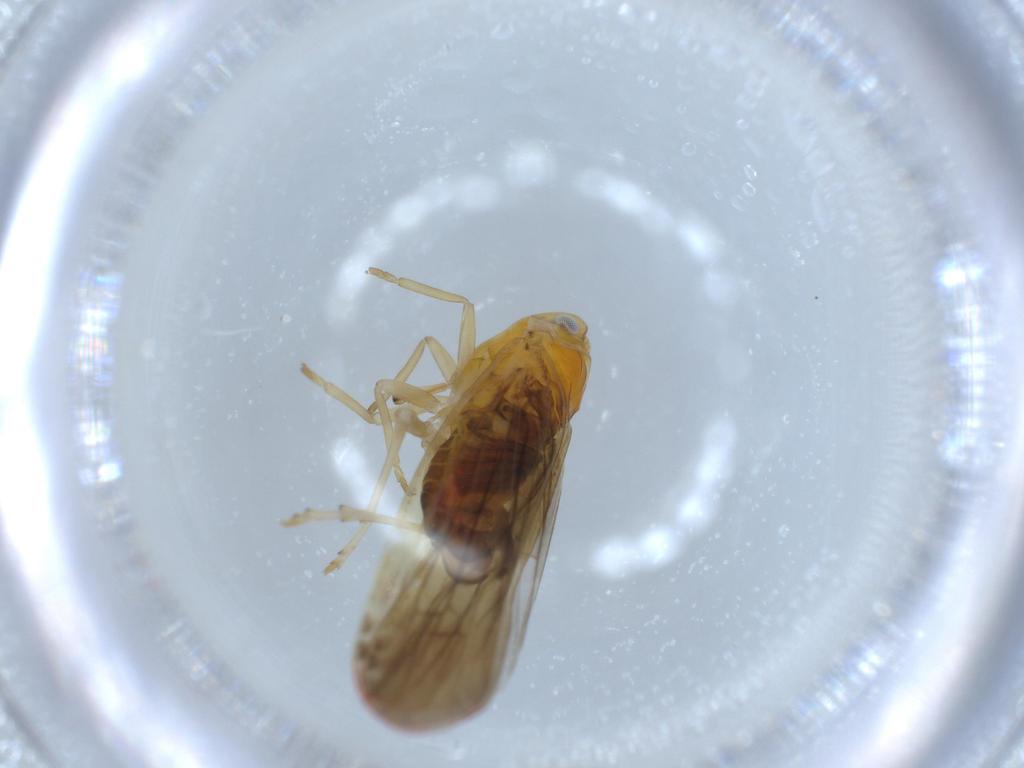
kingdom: Animalia
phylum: Arthropoda
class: Insecta
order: Hemiptera
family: Derbidae
